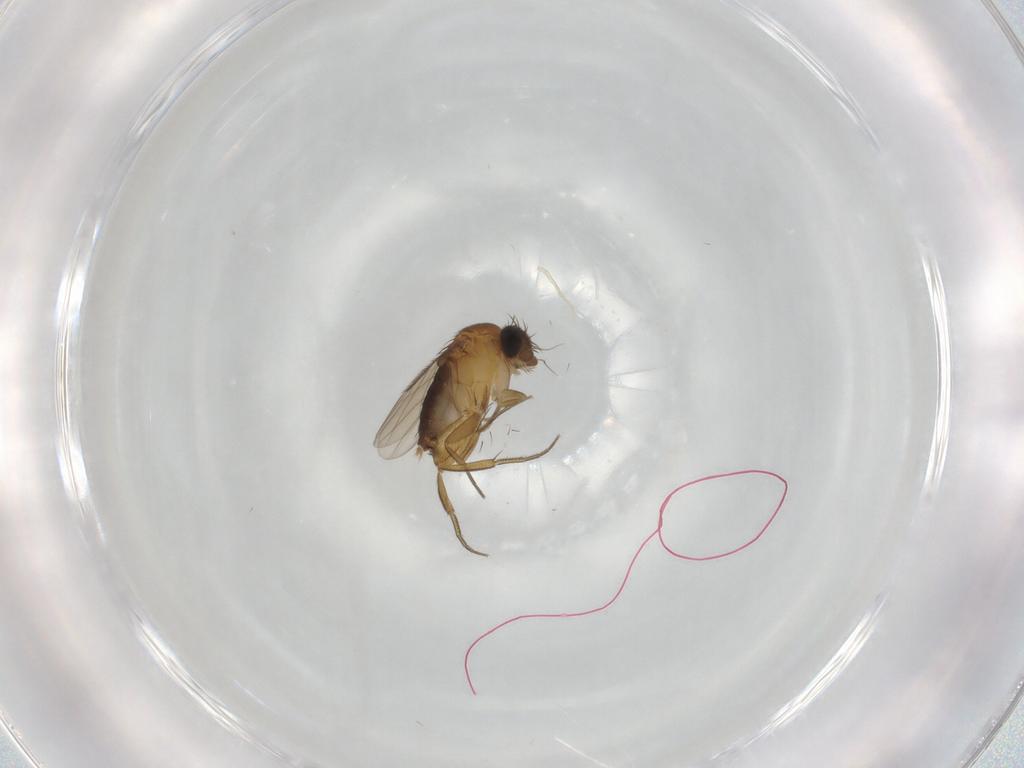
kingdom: Animalia
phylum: Arthropoda
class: Insecta
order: Diptera
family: Phoridae
